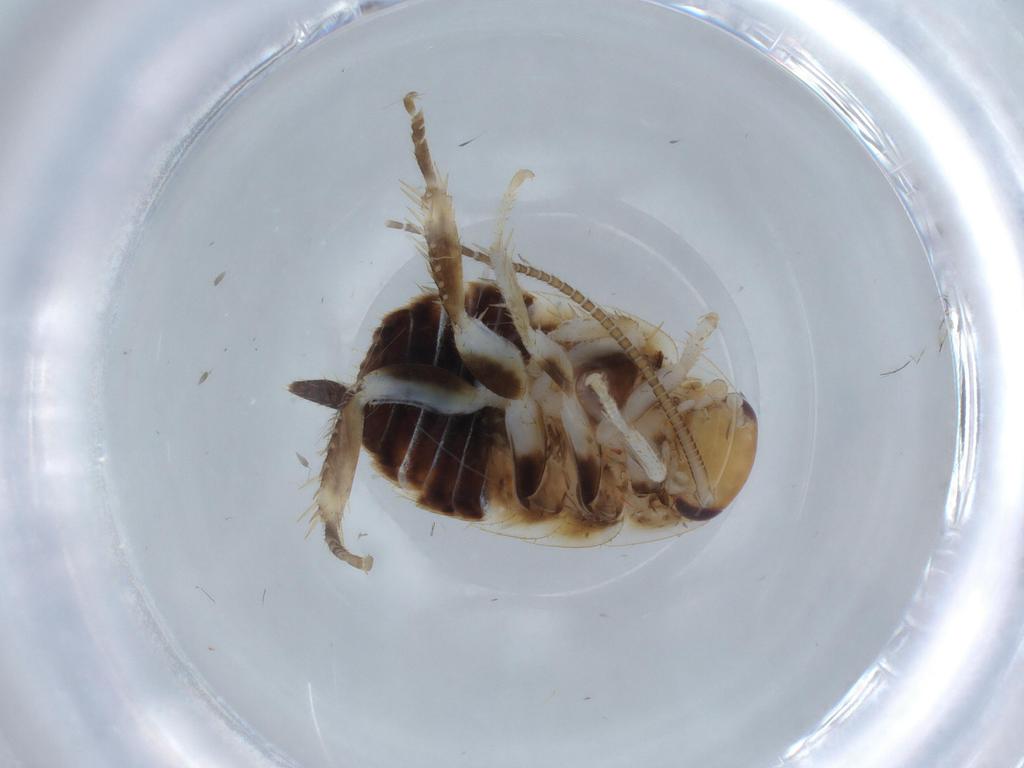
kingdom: Animalia
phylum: Arthropoda
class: Insecta
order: Blattodea
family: Ectobiidae
